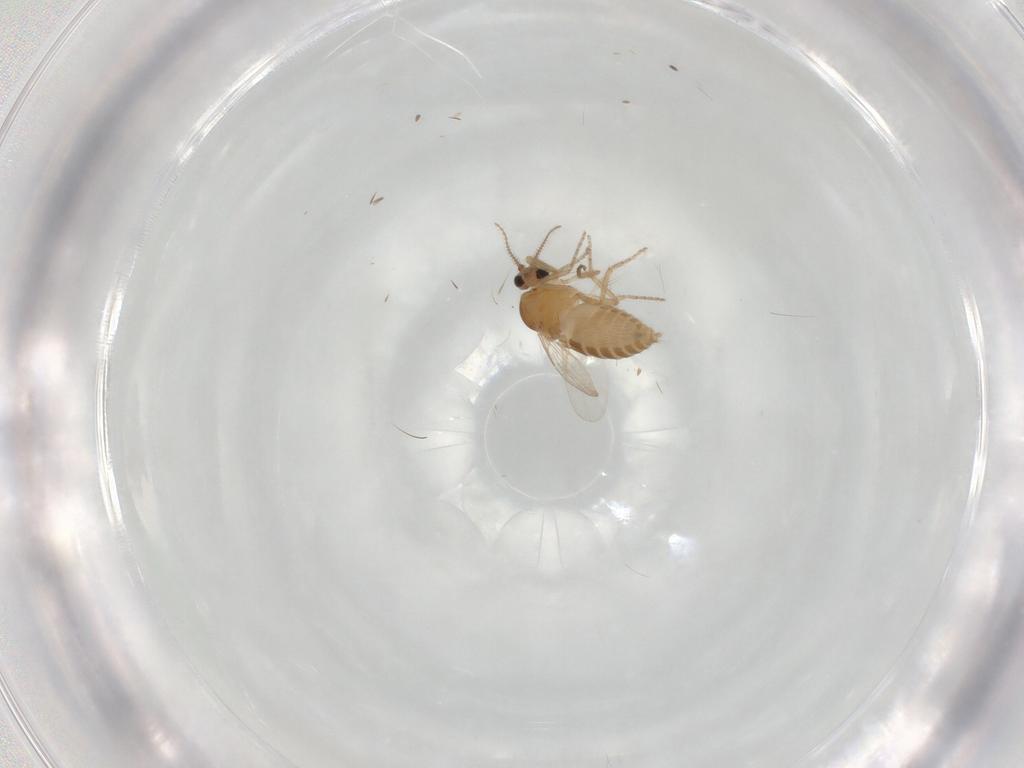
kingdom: Animalia
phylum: Arthropoda
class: Insecta
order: Diptera
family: Ceratopogonidae
